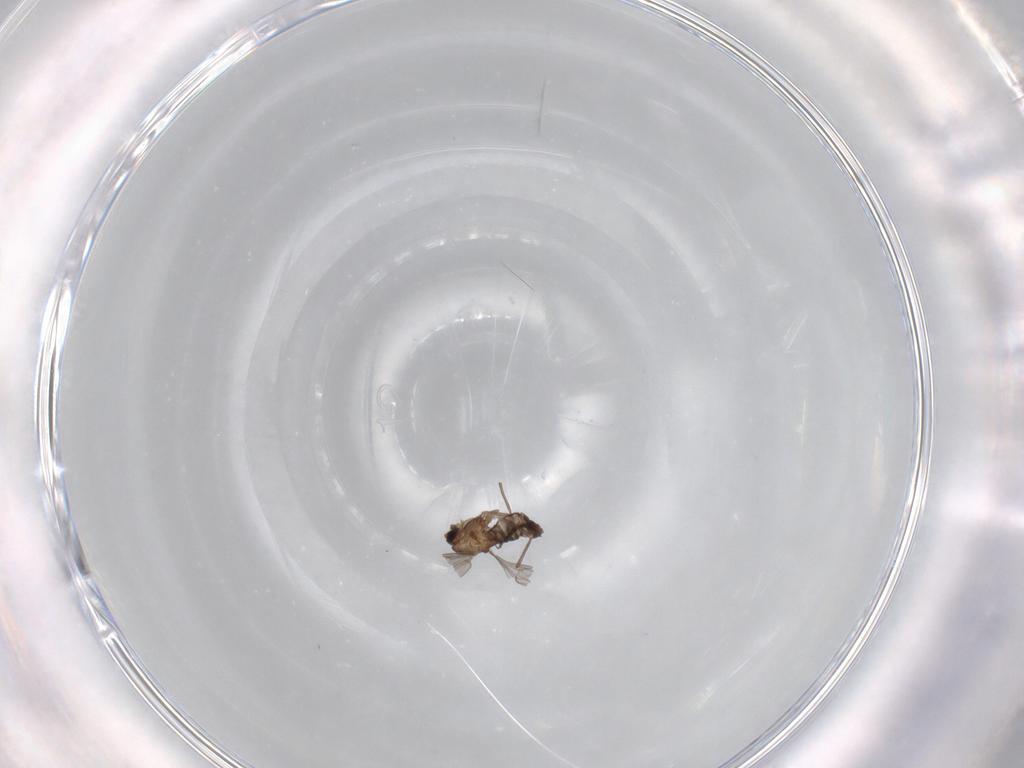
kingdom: Animalia
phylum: Arthropoda
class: Insecta
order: Diptera
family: Chironomidae
